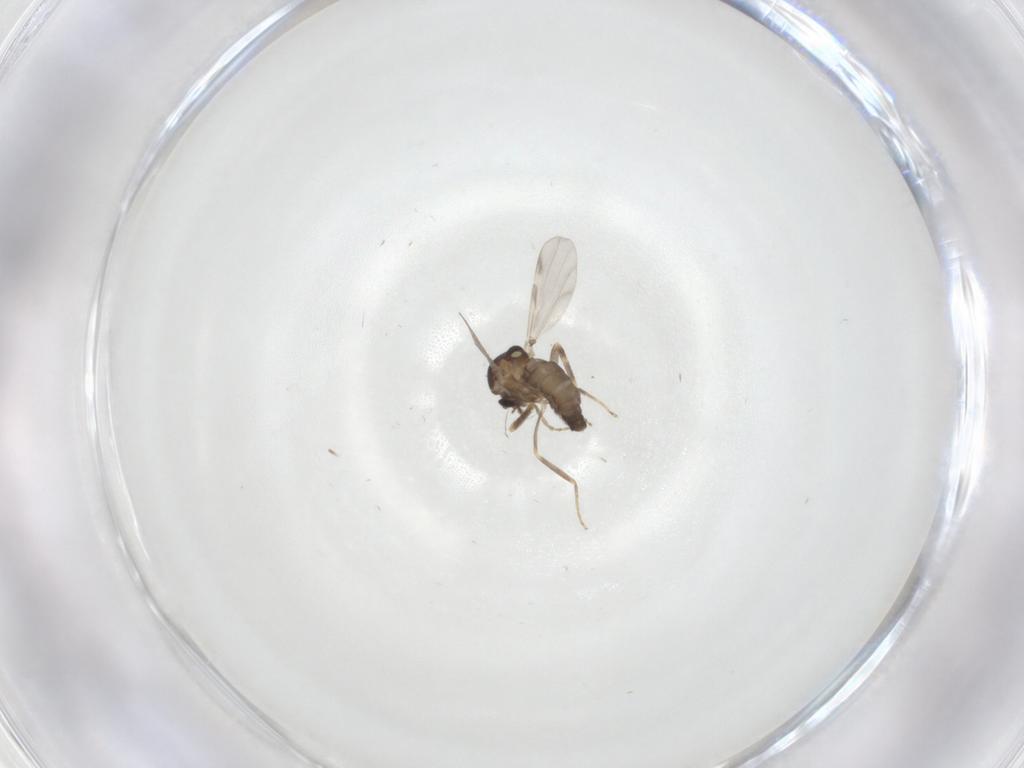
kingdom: Animalia
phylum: Arthropoda
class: Insecta
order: Diptera
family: Ceratopogonidae
